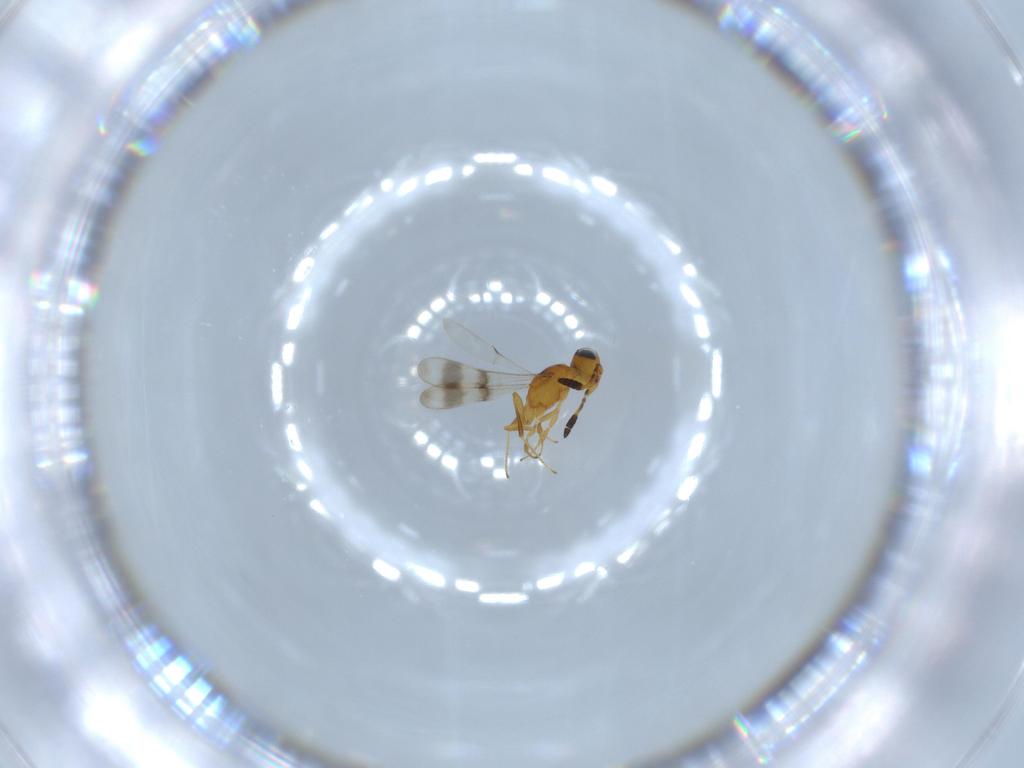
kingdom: Animalia
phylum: Arthropoda
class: Insecta
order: Hymenoptera
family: Scelionidae
